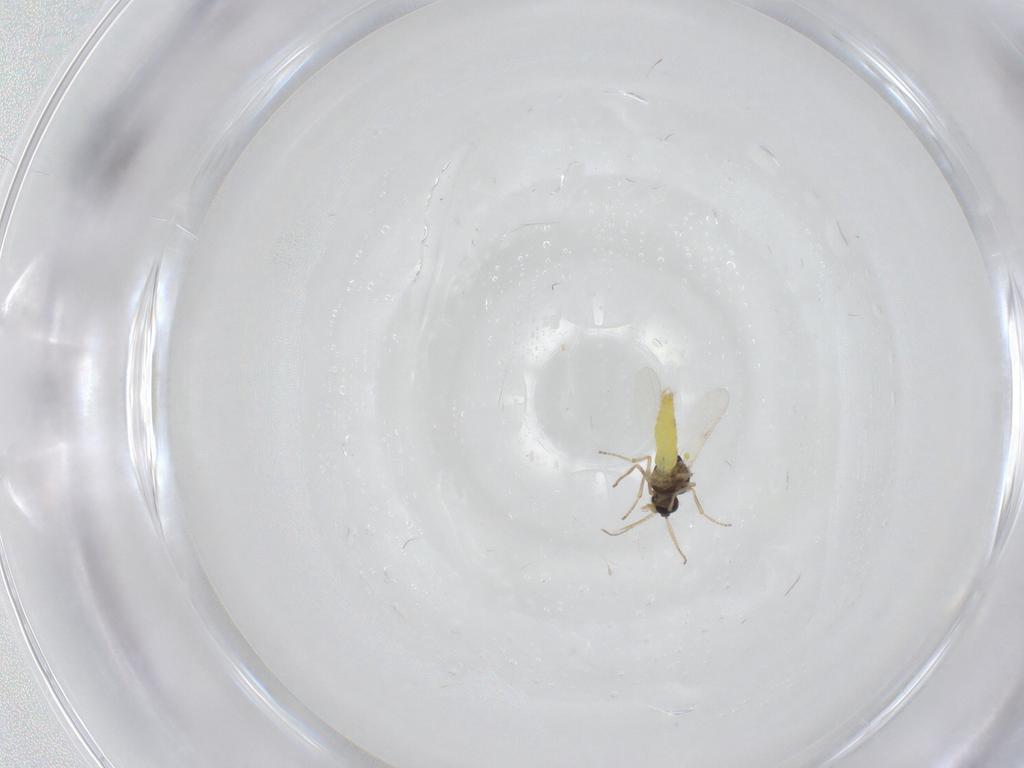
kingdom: Animalia
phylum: Arthropoda
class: Insecta
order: Diptera
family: Ceratopogonidae
